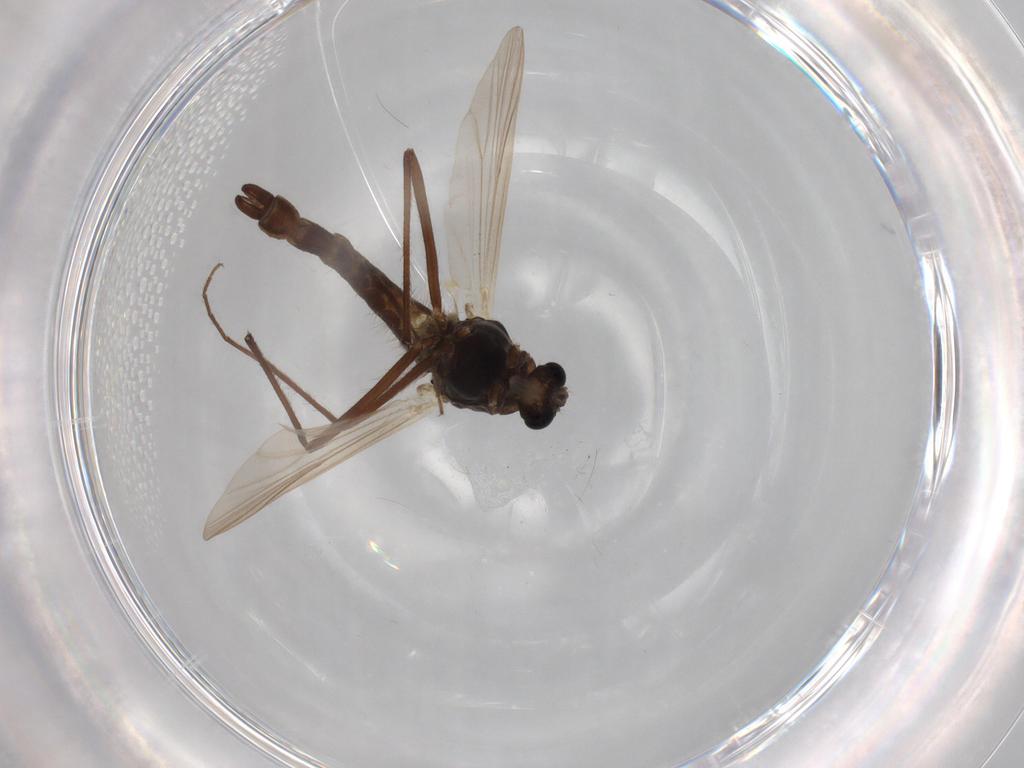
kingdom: Animalia
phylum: Arthropoda
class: Insecta
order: Diptera
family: Chironomidae
